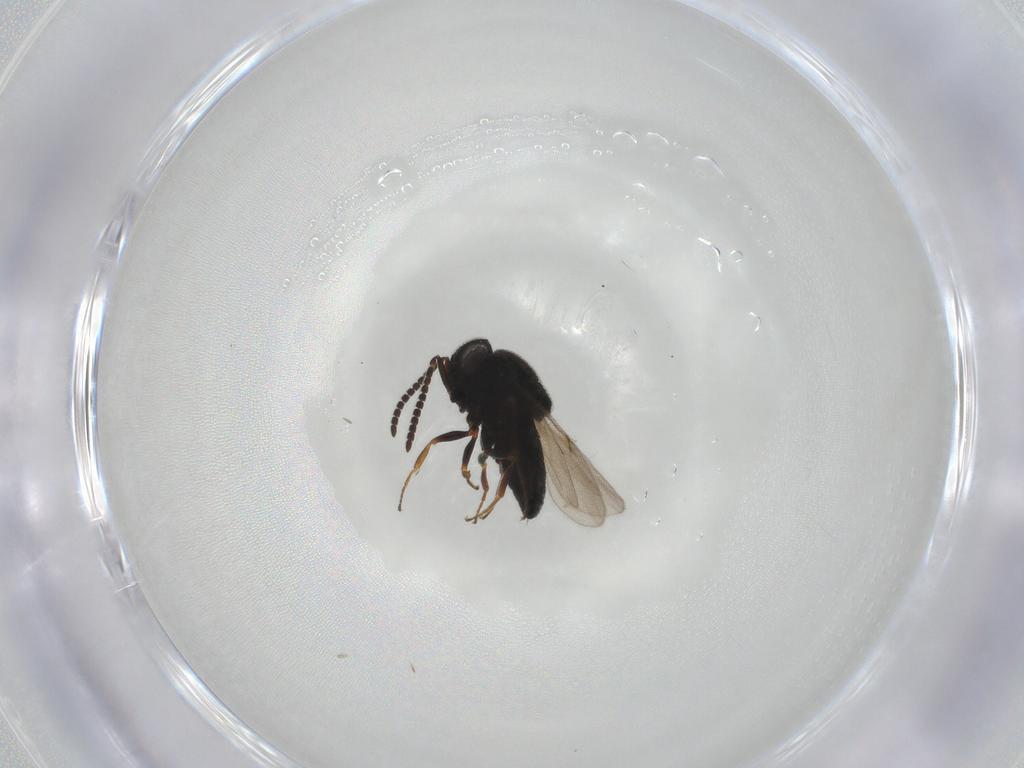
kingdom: Animalia
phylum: Arthropoda
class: Insecta
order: Hymenoptera
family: Scelionidae
